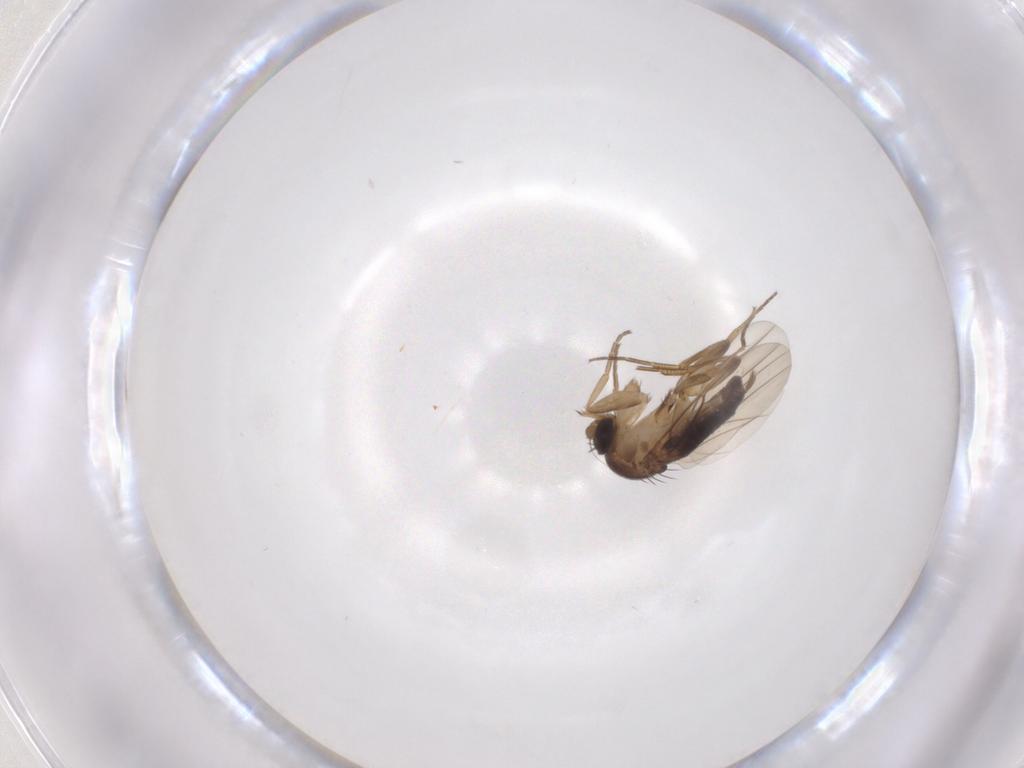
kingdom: Animalia
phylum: Arthropoda
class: Insecta
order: Diptera
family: Phoridae
